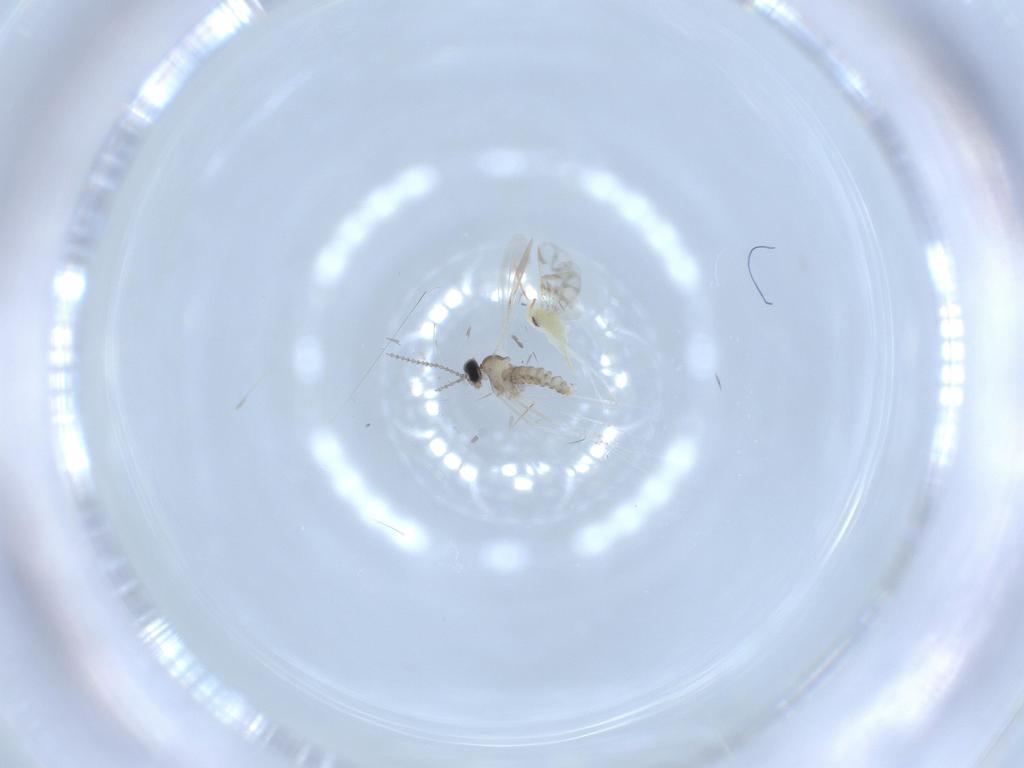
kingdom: Animalia
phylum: Arthropoda
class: Insecta
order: Diptera
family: Cecidomyiidae
